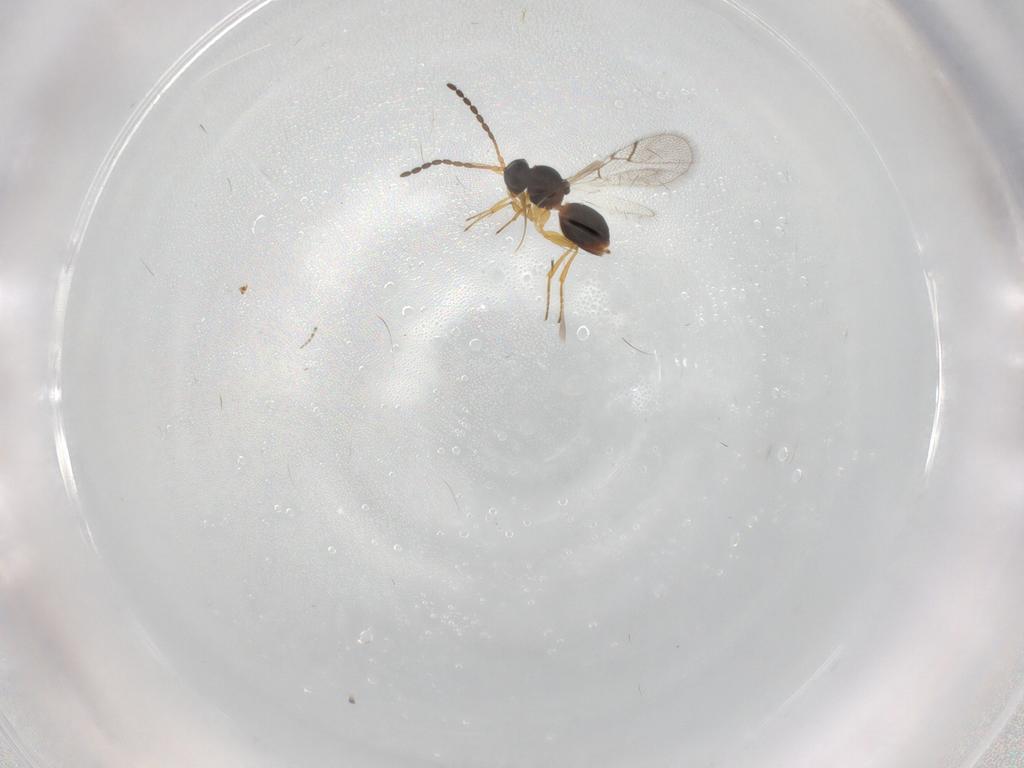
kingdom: Animalia
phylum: Arthropoda
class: Insecta
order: Hymenoptera
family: Figitidae
